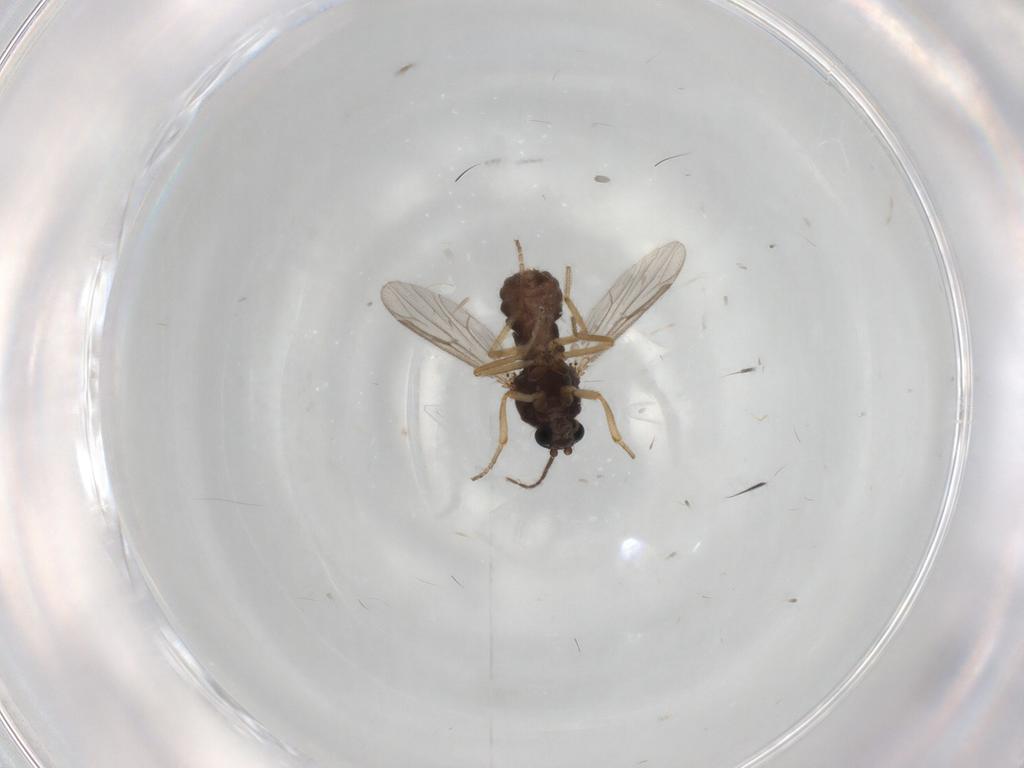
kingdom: Animalia
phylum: Arthropoda
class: Insecta
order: Diptera
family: Ceratopogonidae
